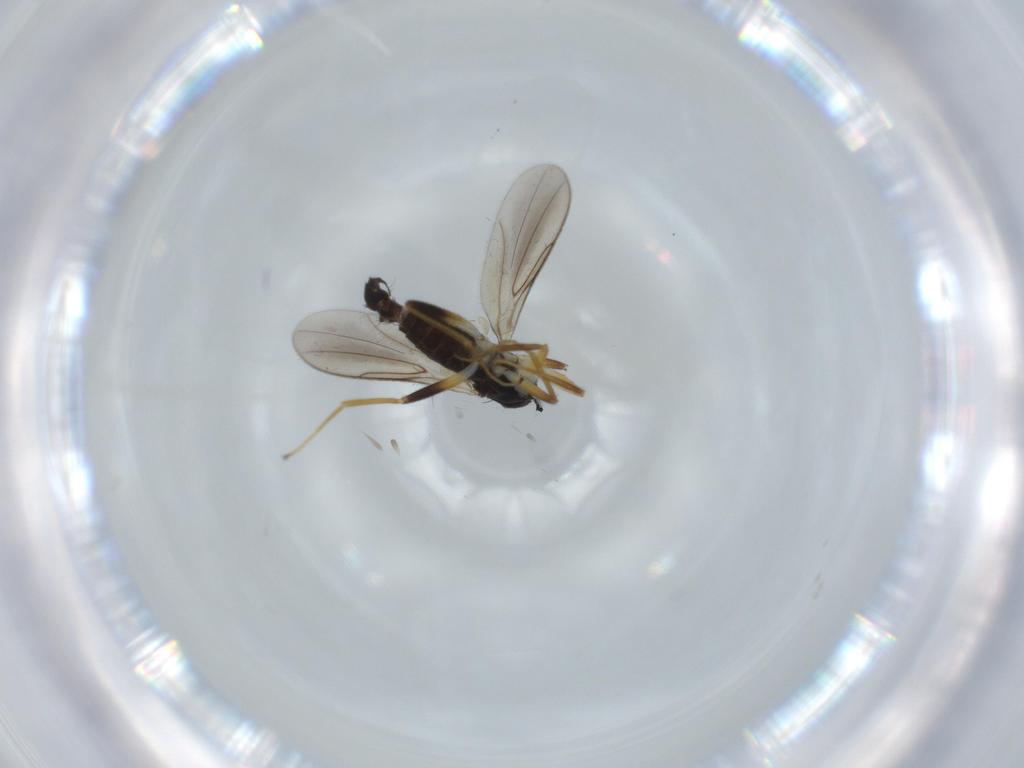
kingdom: Animalia
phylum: Arthropoda
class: Insecta
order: Diptera
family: Hybotidae
